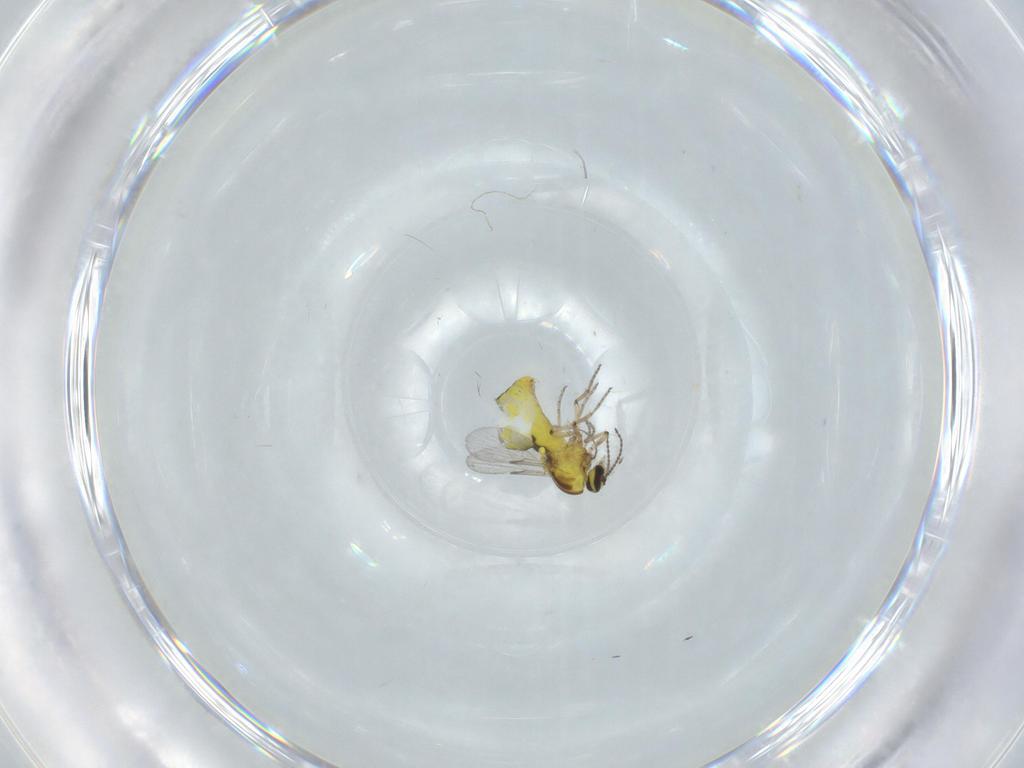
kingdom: Animalia
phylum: Arthropoda
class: Insecta
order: Diptera
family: Ceratopogonidae
